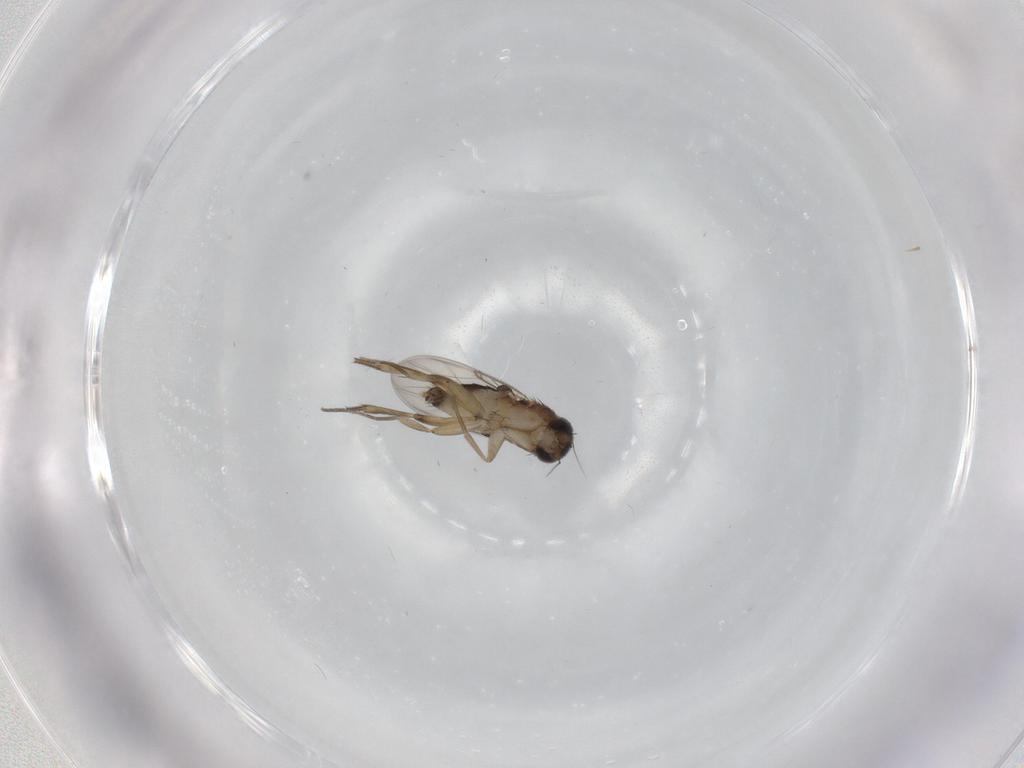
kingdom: Animalia
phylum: Arthropoda
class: Insecta
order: Diptera
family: Phoridae
